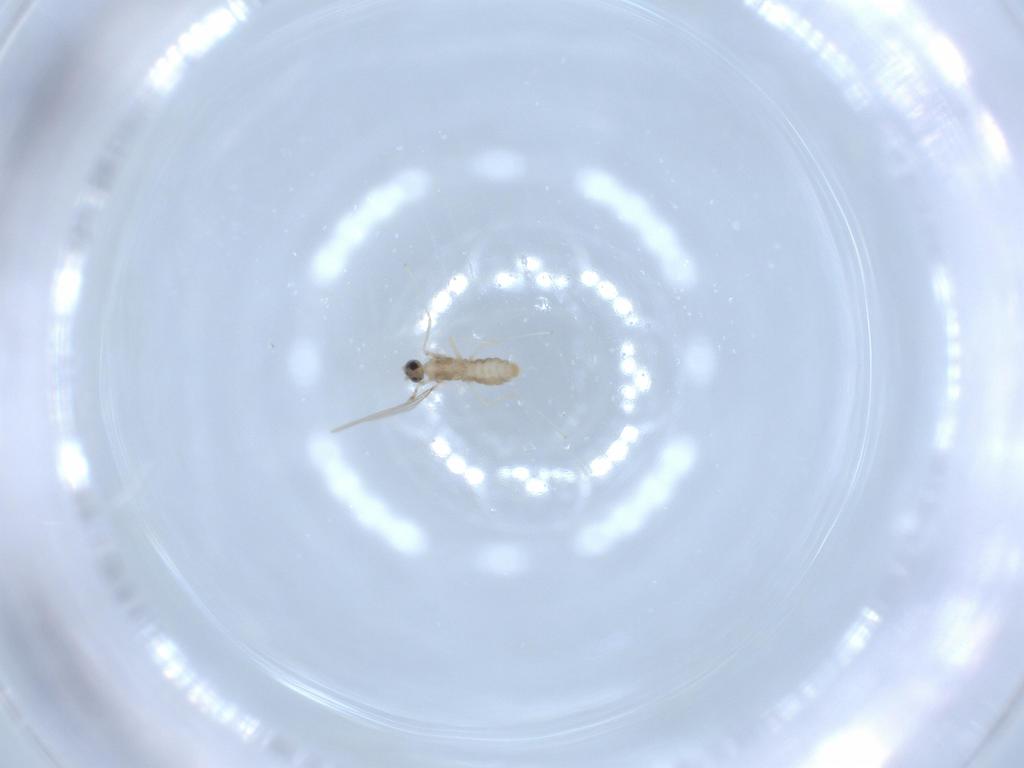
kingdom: Animalia
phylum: Arthropoda
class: Insecta
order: Diptera
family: Cecidomyiidae
